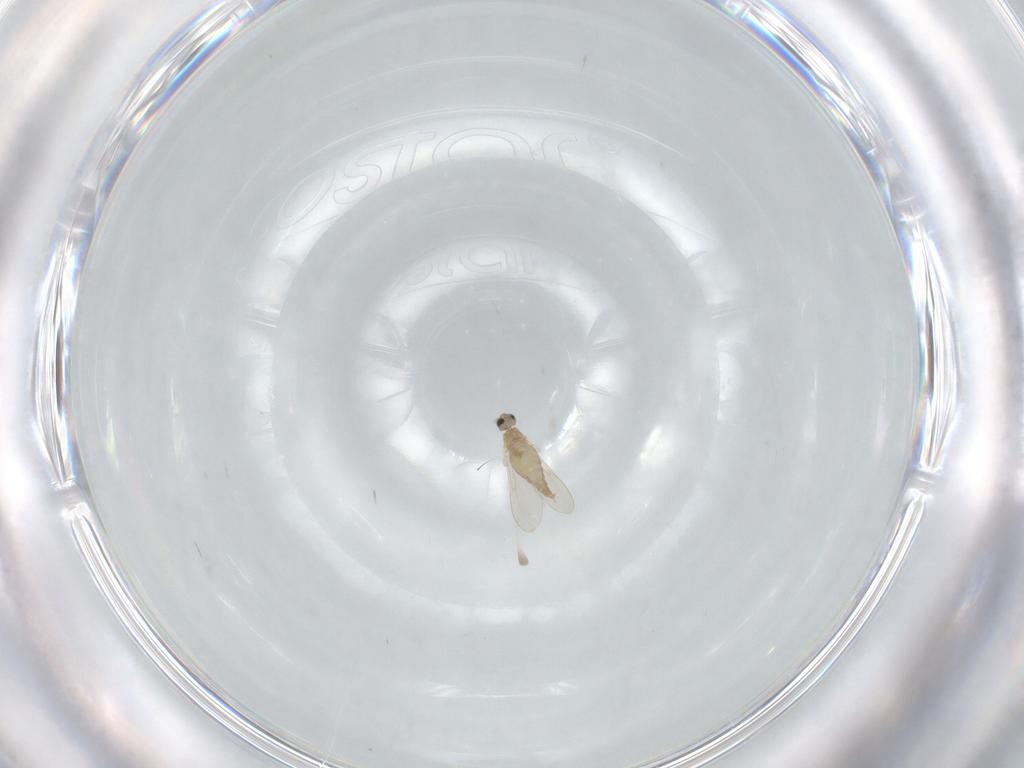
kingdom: Animalia
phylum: Arthropoda
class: Insecta
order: Diptera
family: Cecidomyiidae
